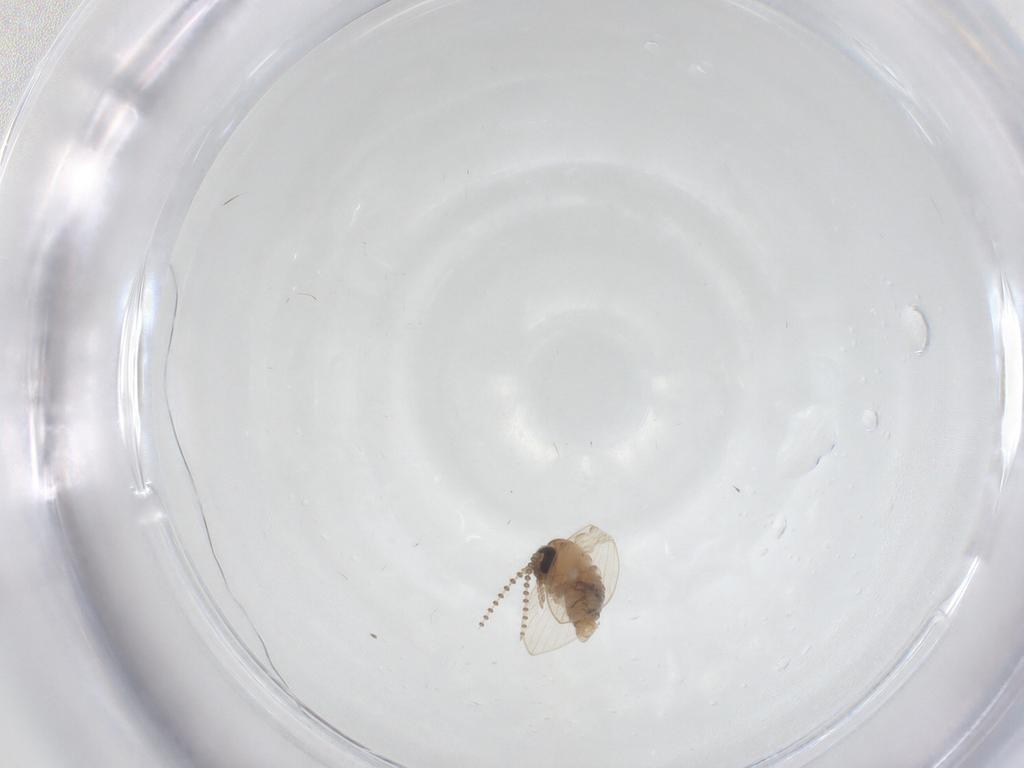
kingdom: Animalia
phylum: Arthropoda
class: Insecta
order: Diptera
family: Psychodidae
